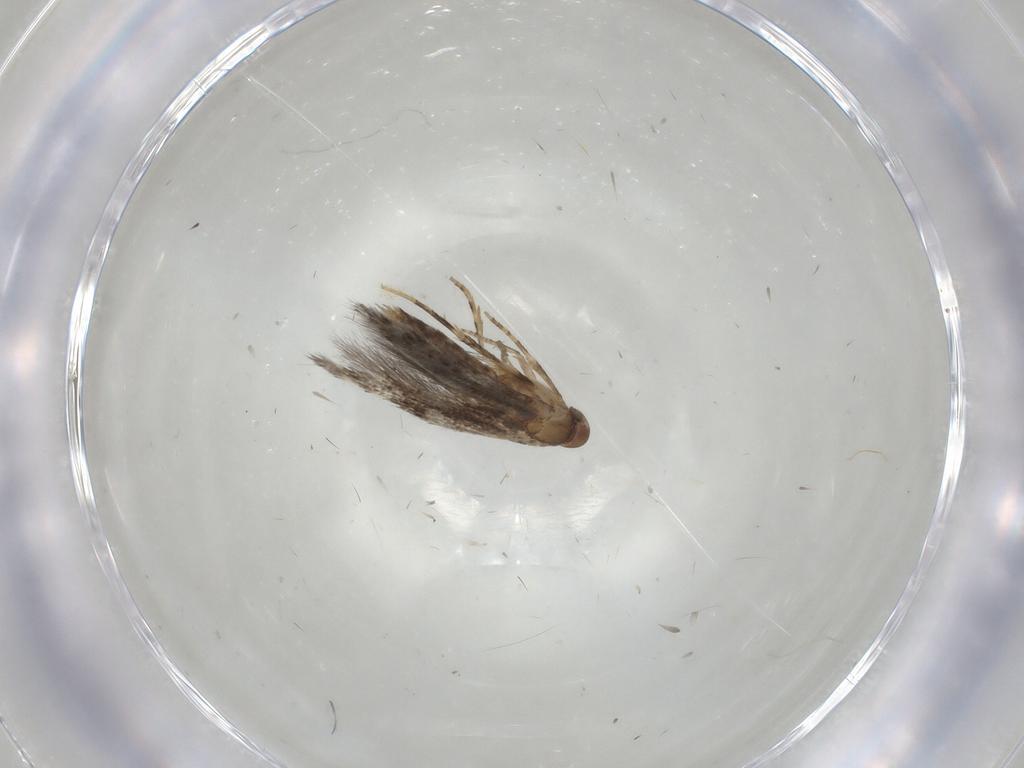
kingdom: Animalia
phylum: Arthropoda
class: Insecta
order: Lepidoptera
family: Elachistidae
